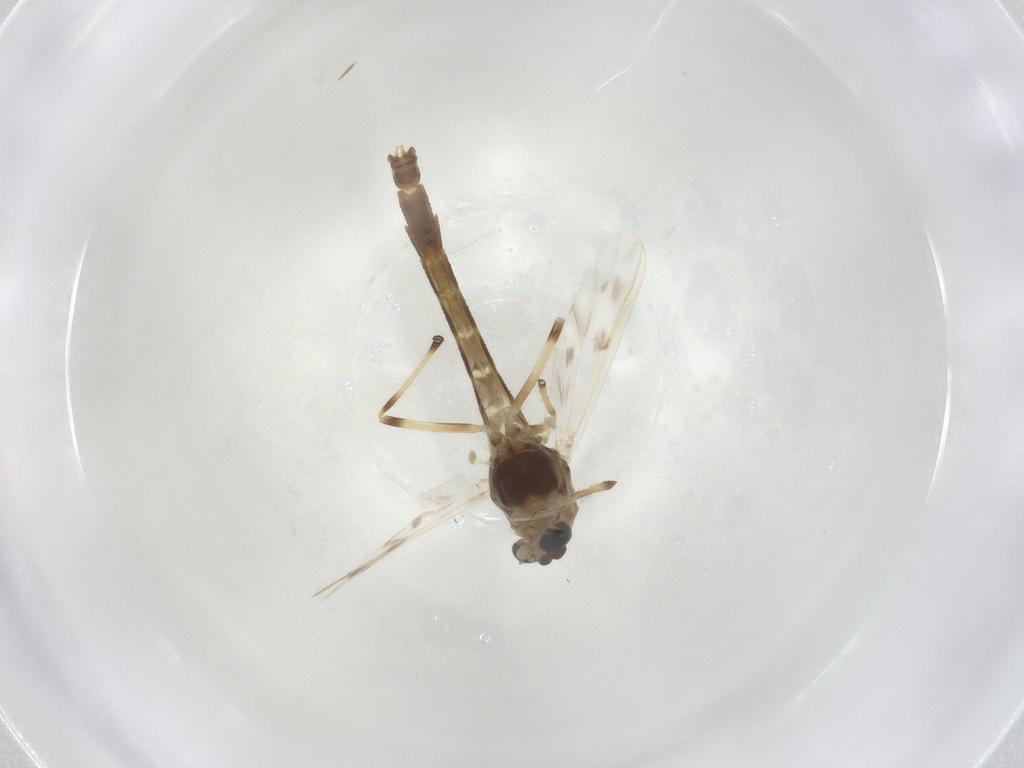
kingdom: Animalia
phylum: Arthropoda
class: Insecta
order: Diptera
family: Chironomidae
